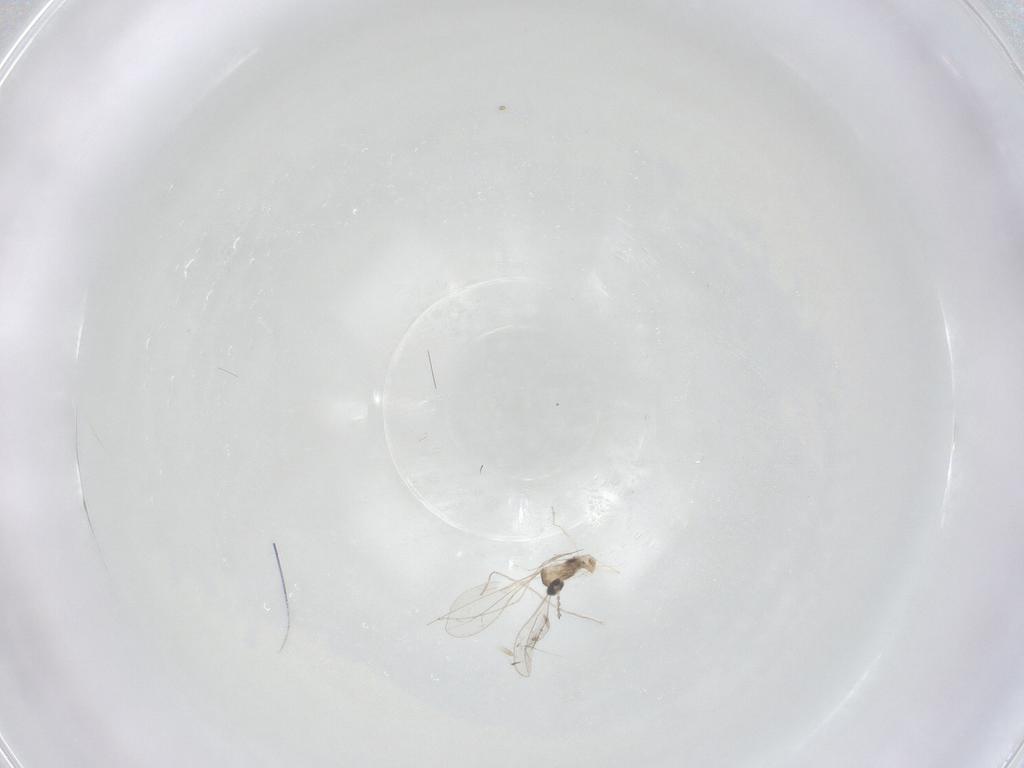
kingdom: Animalia
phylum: Arthropoda
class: Insecta
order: Diptera
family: Cecidomyiidae
